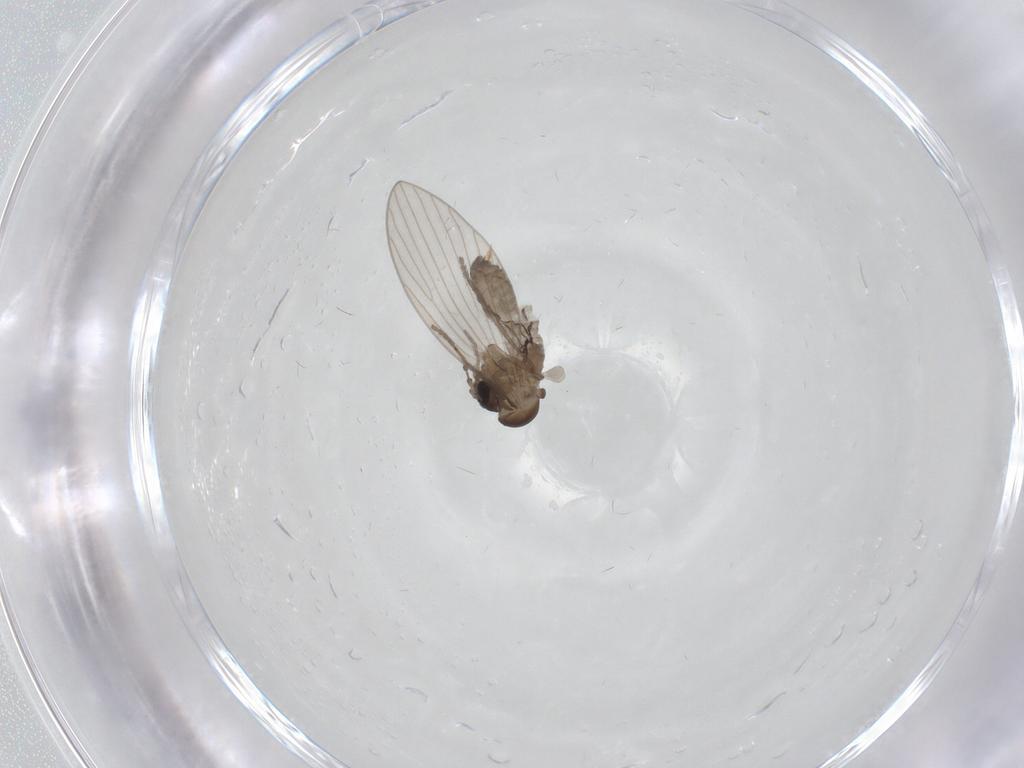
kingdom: Animalia
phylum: Arthropoda
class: Insecta
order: Diptera
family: Psychodidae
